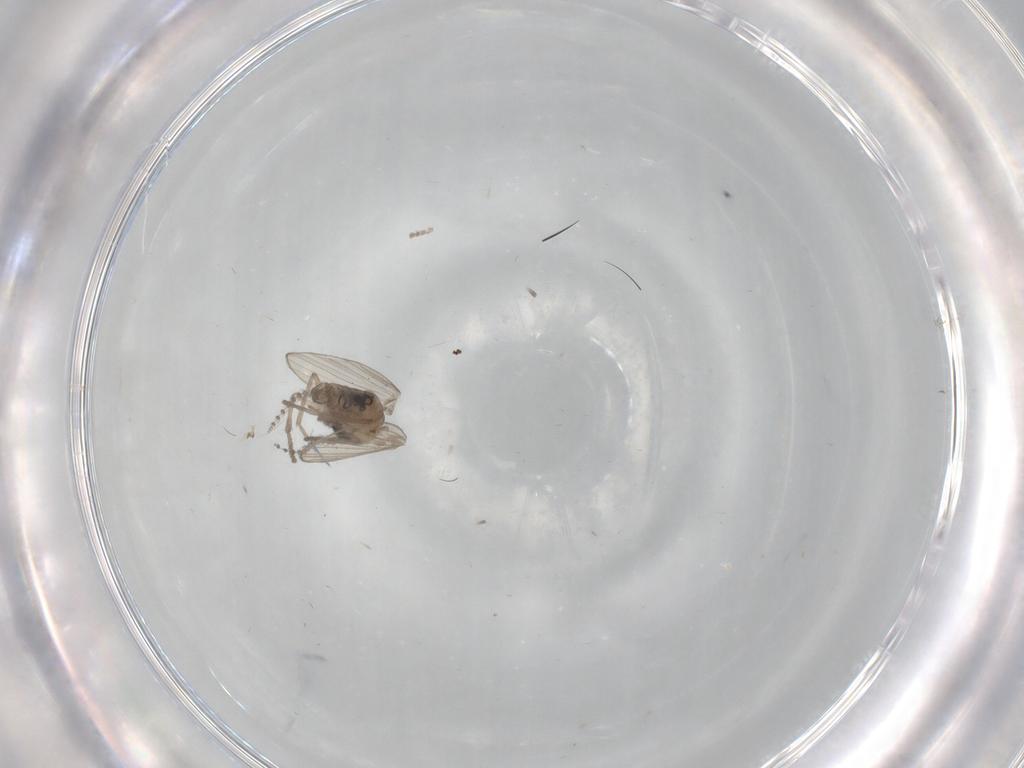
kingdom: Animalia
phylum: Arthropoda
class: Insecta
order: Diptera
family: Psychodidae
